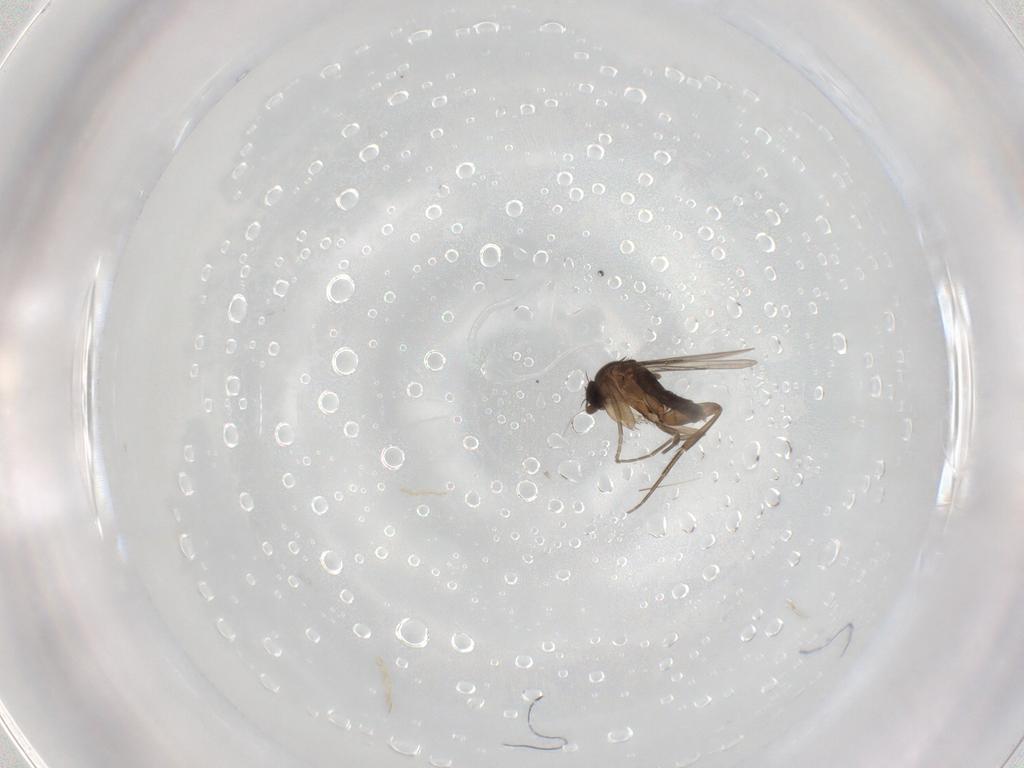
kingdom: Animalia
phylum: Arthropoda
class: Insecta
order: Diptera
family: Phoridae
